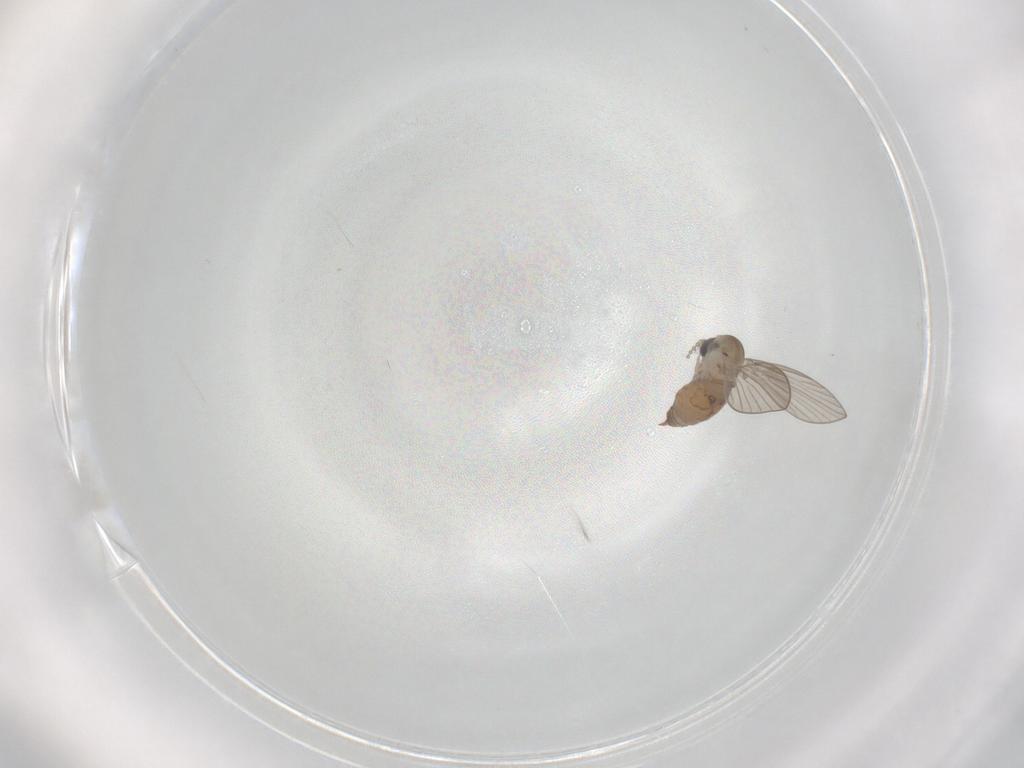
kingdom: Animalia
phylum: Arthropoda
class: Insecta
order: Diptera
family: Psychodidae
